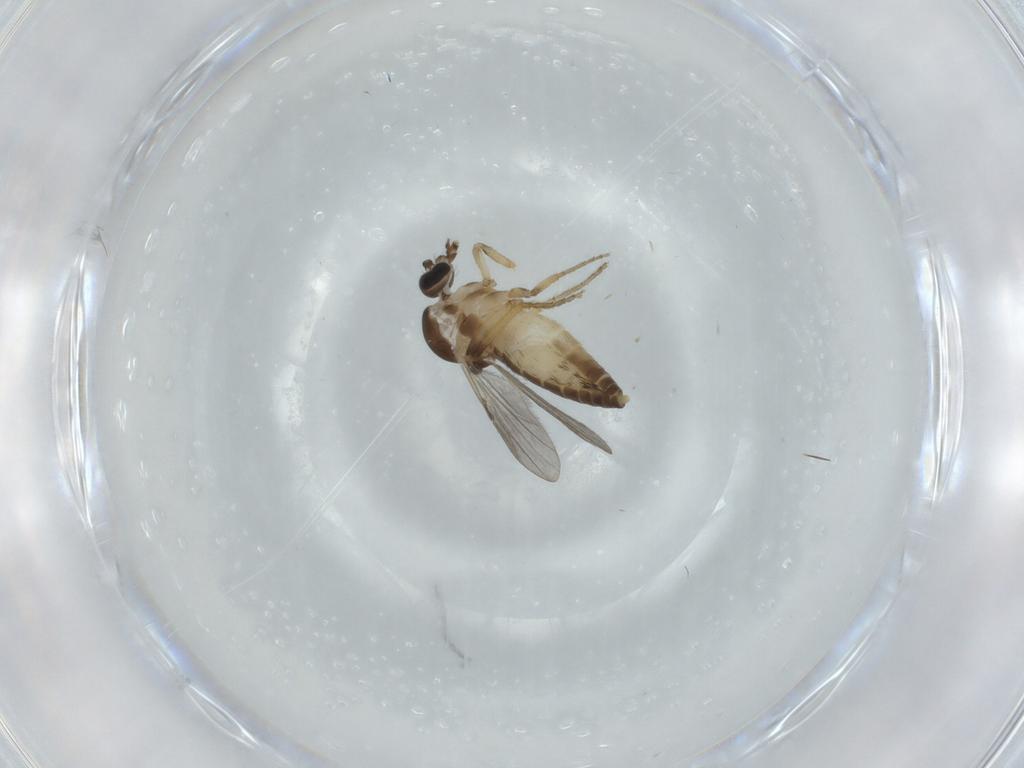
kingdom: Animalia
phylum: Arthropoda
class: Insecta
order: Diptera
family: Ceratopogonidae
